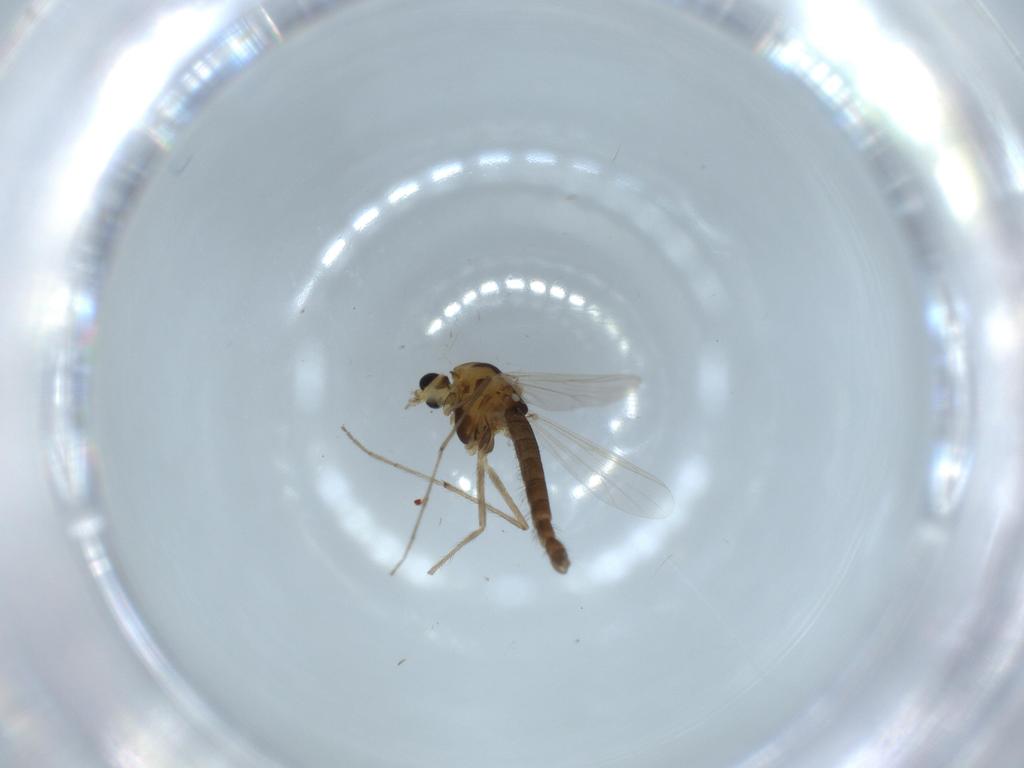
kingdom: Animalia
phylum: Arthropoda
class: Insecta
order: Diptera
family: Chironomidae
